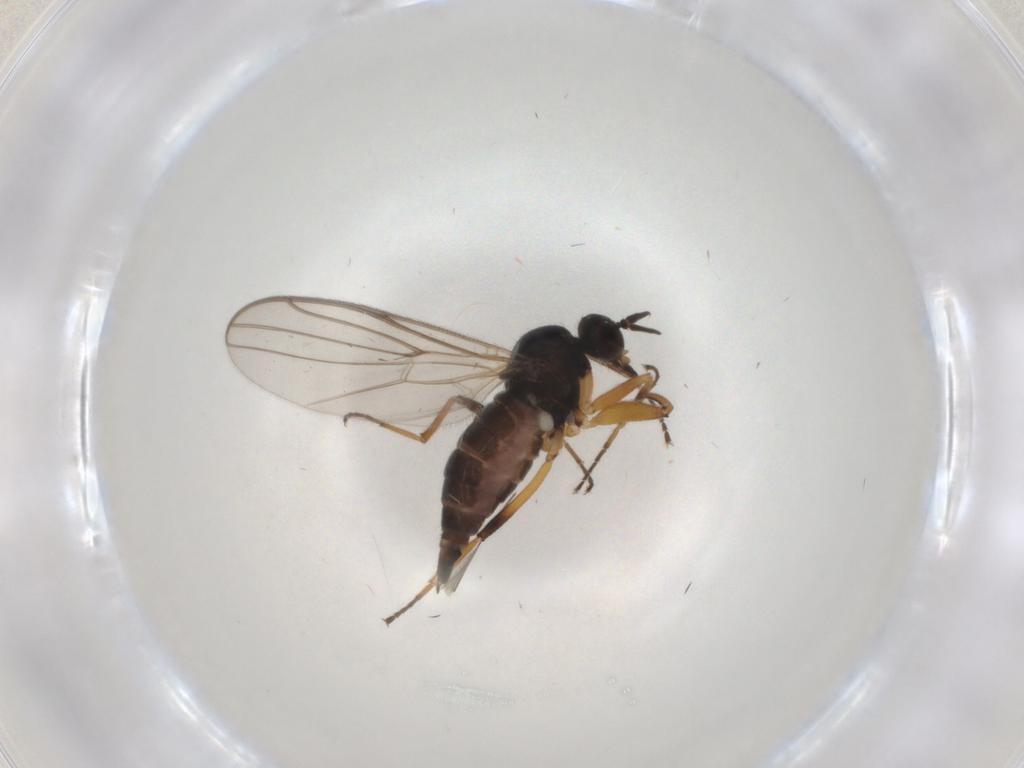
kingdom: Animalia
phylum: Arthropoda
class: Insecta
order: Diptera
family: Hybotidae
